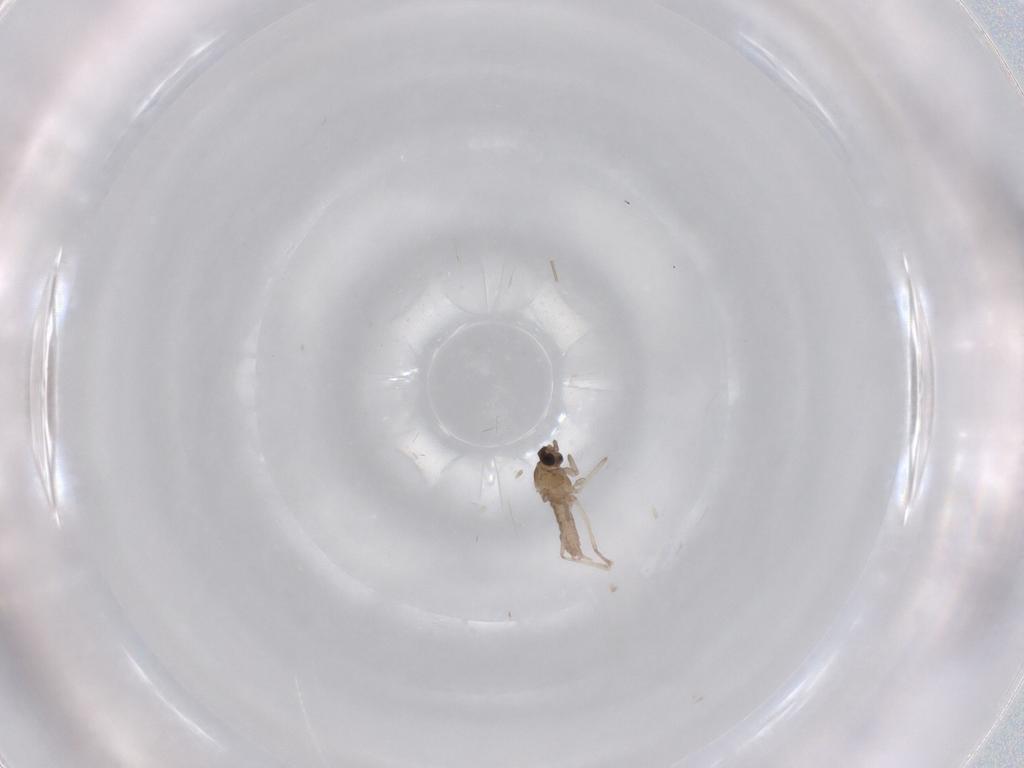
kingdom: Animalia
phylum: Arthropoda
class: Insecta
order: Diptera
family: Cecidomyiidae
